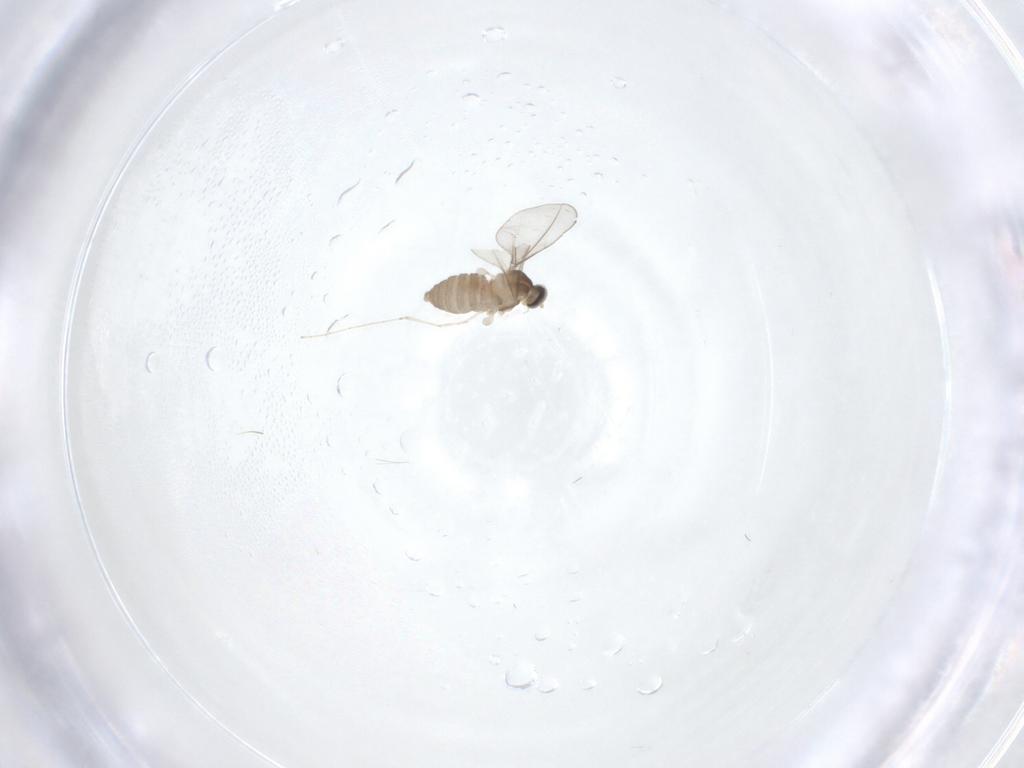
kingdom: Animalia
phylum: Arthropoda
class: Insecta
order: Diptera
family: Cecidomyiidae
